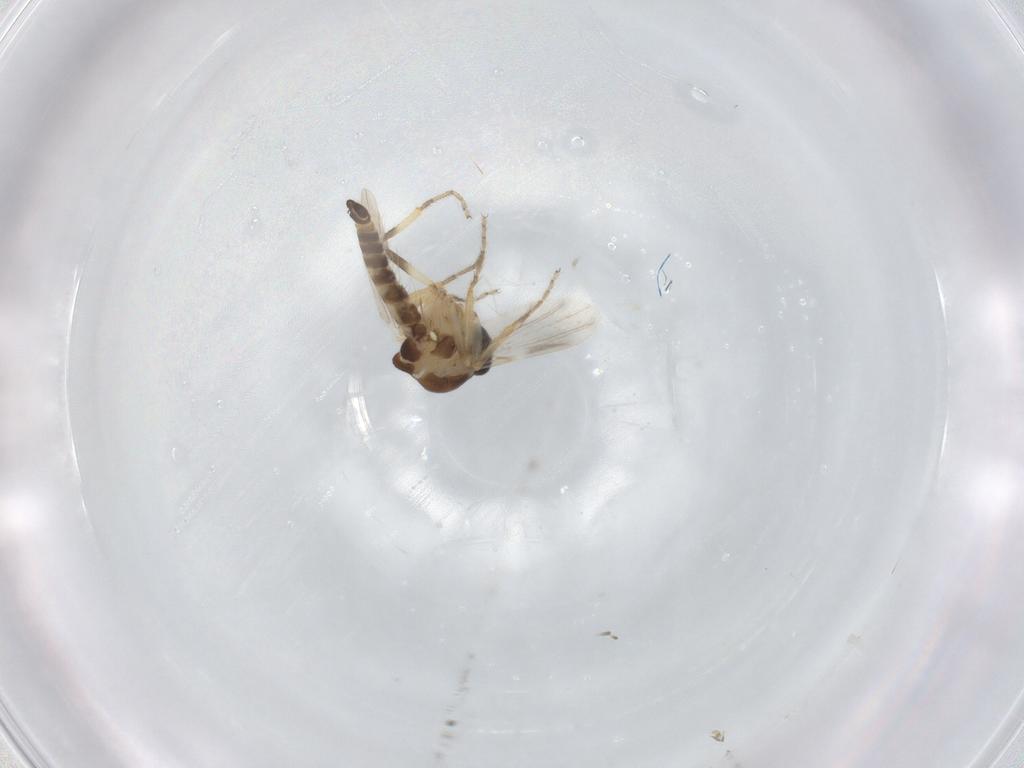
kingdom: Animalia
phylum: Arthropoda
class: Insecta
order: Diptera
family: Ceratopogonidae
